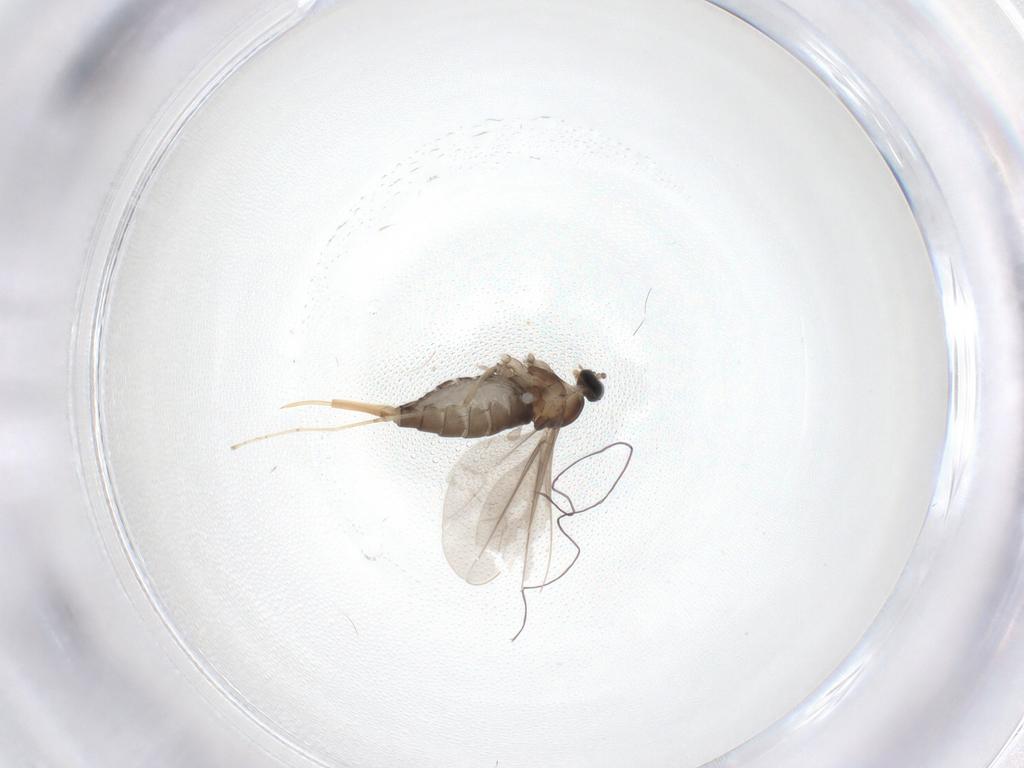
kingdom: Animalia
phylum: Arthropoda
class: Insecta
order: Diptera
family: Cecidomyiidae
